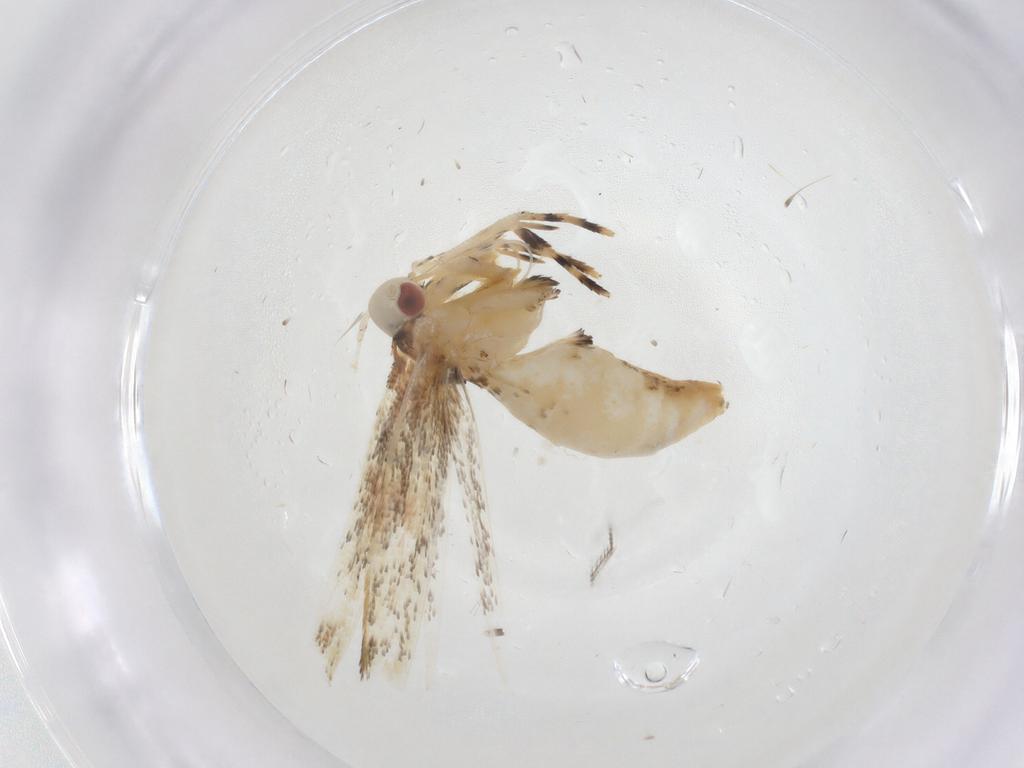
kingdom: Animalia
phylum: Arthropoda
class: Insecta
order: Lepidoptera
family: Cosmopterigidae
